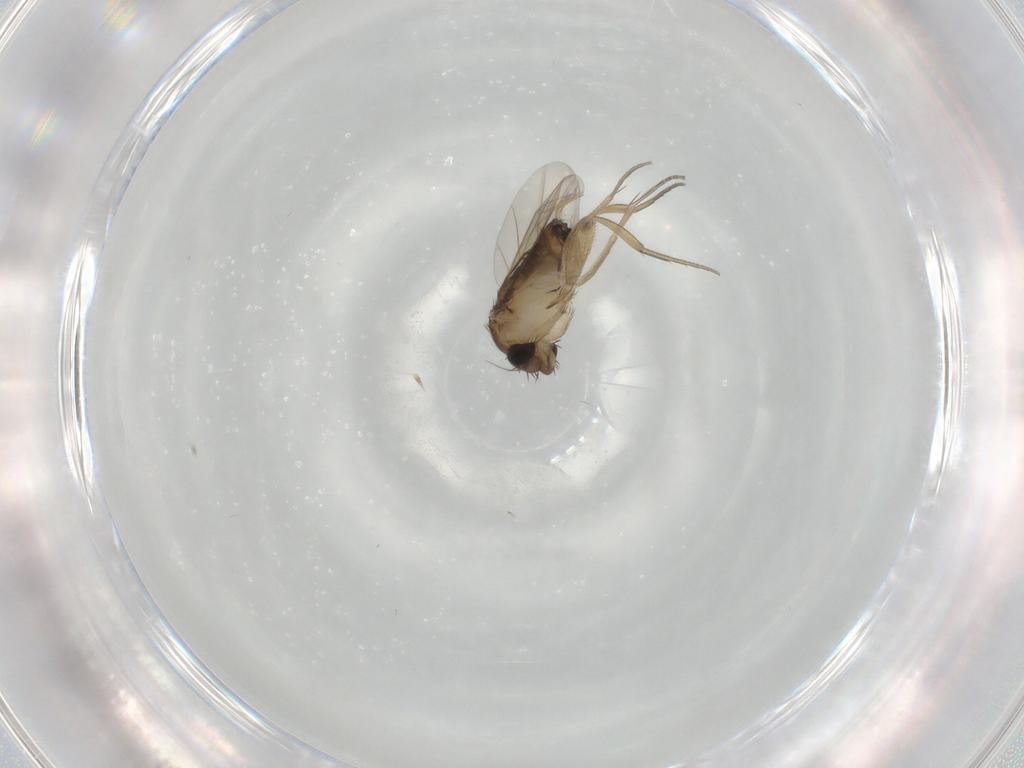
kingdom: Animalia
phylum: Arthropoda
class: Insecta
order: Diptera
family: Phoridae
